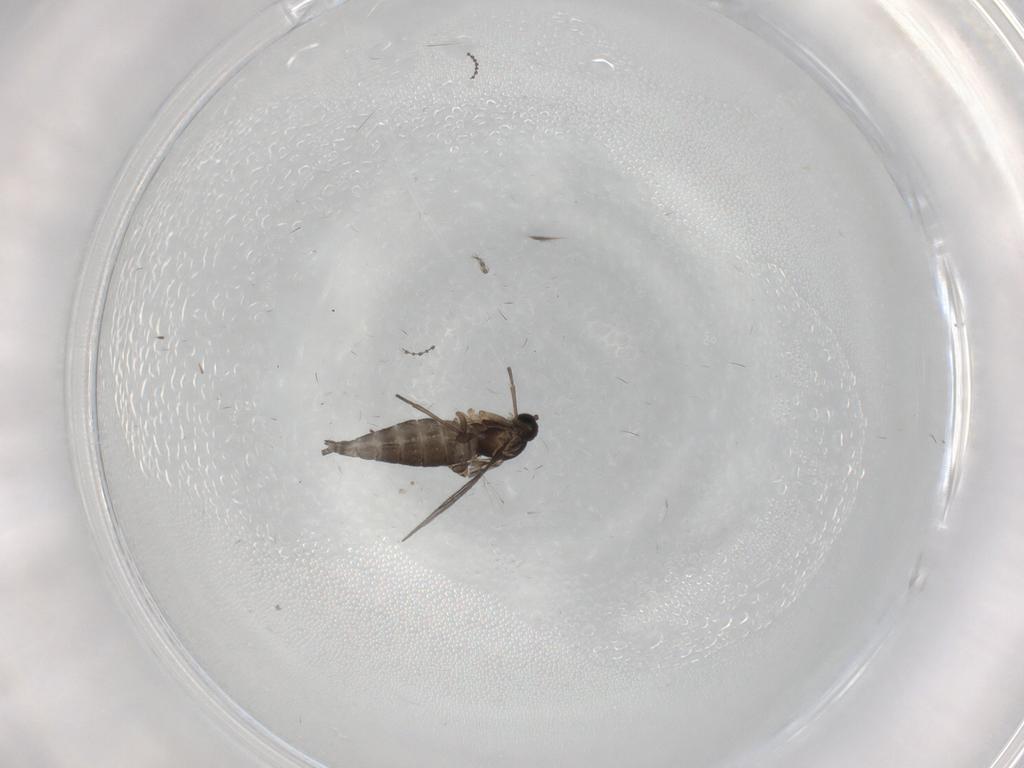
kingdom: Animalia
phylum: Arthropoda
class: Insecta
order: Diptera
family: Sciaridae
